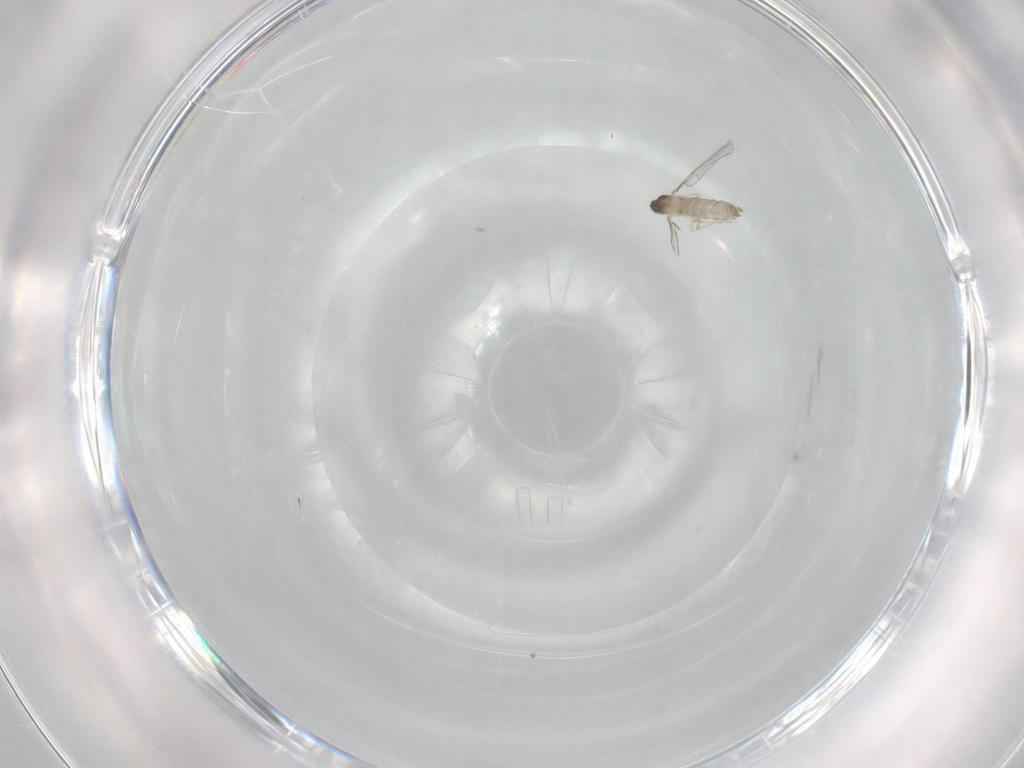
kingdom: Animalia
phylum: Arthropoda
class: Insecta
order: Diptera
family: Cecidomyiidae
